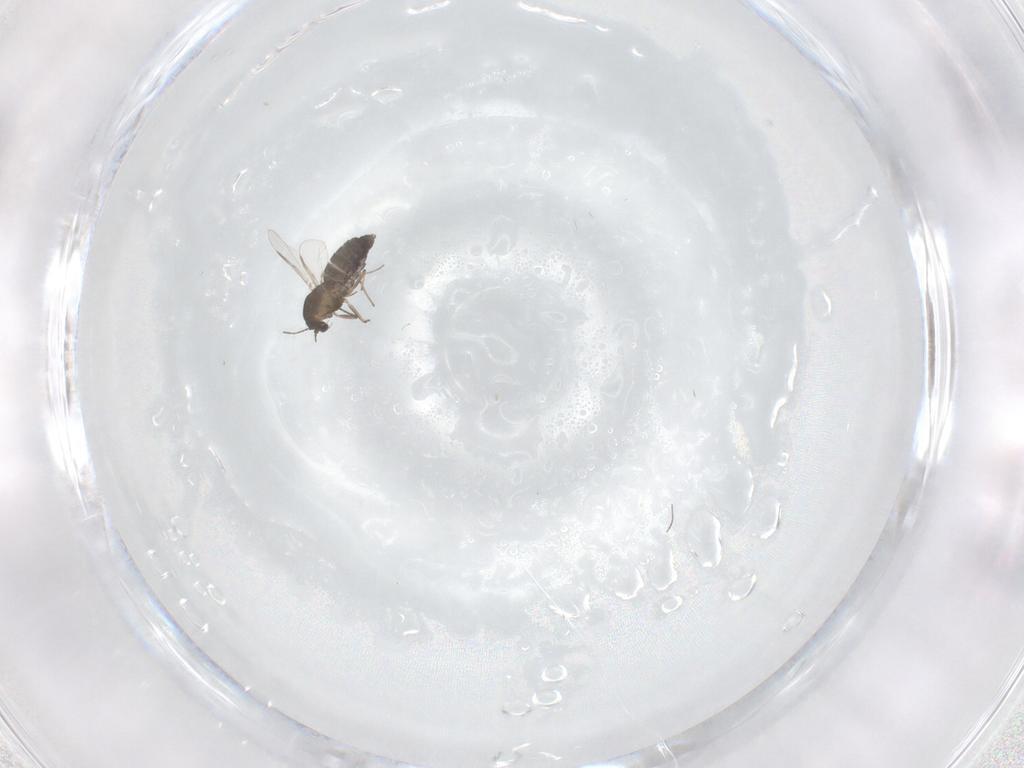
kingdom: Animalia
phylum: Arthropoda
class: Insecta
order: Diptera
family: Chironomidae
